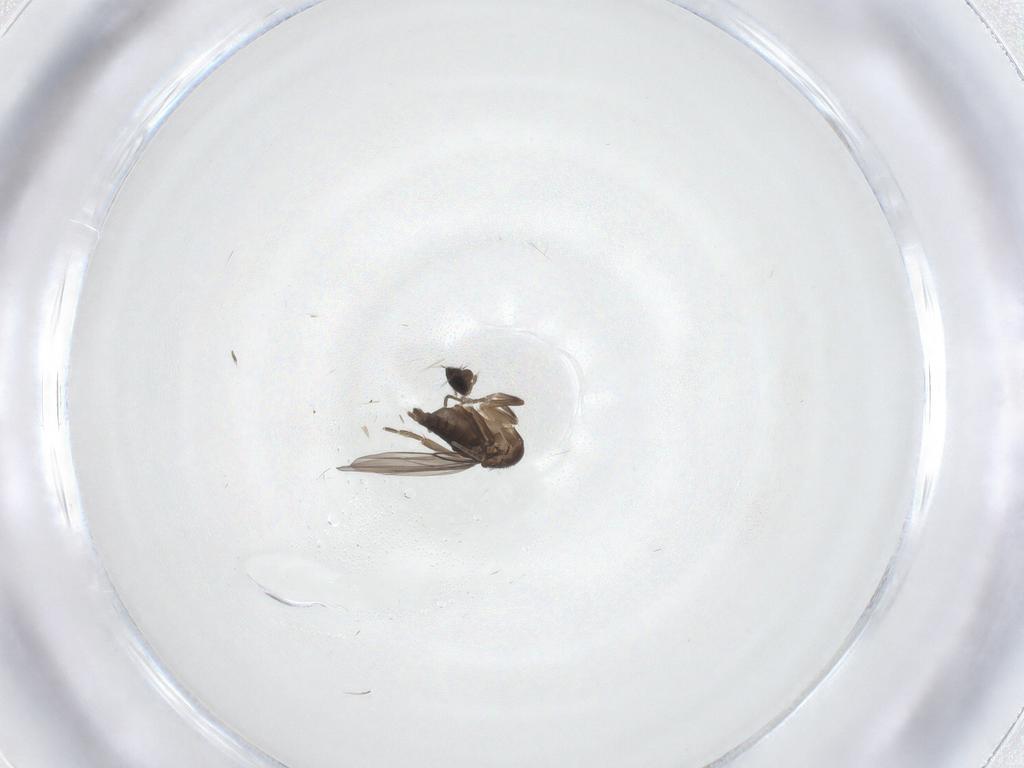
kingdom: Animalia
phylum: Arthropoda
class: Insecta
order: Diptera
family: Phoridae
